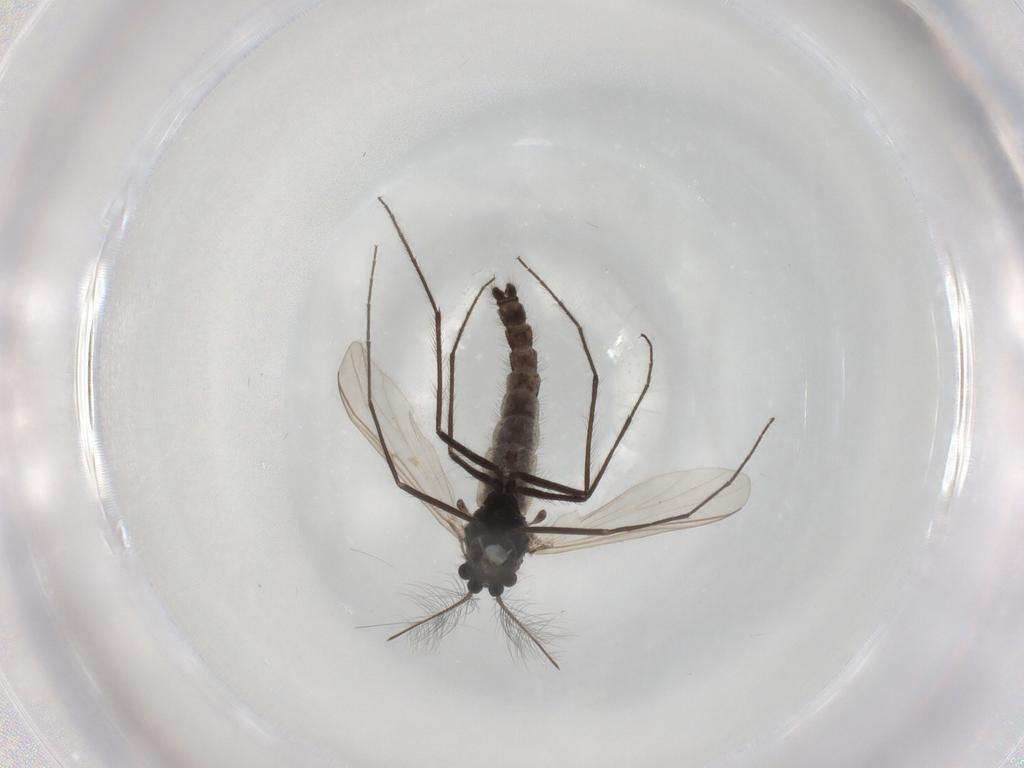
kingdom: Animalia
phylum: Arthropoda
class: Insecta
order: Diptera
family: Chironomidae
